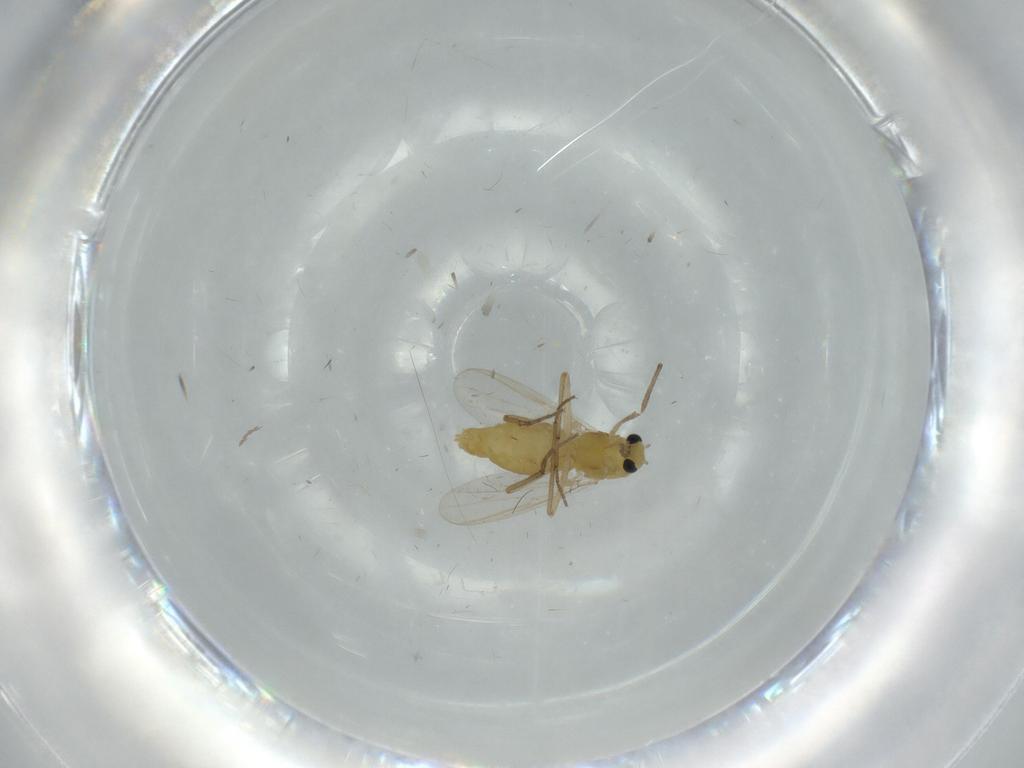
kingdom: Animalia
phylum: Arthropoda
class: Insecta
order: Diptera
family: Chironomidae
